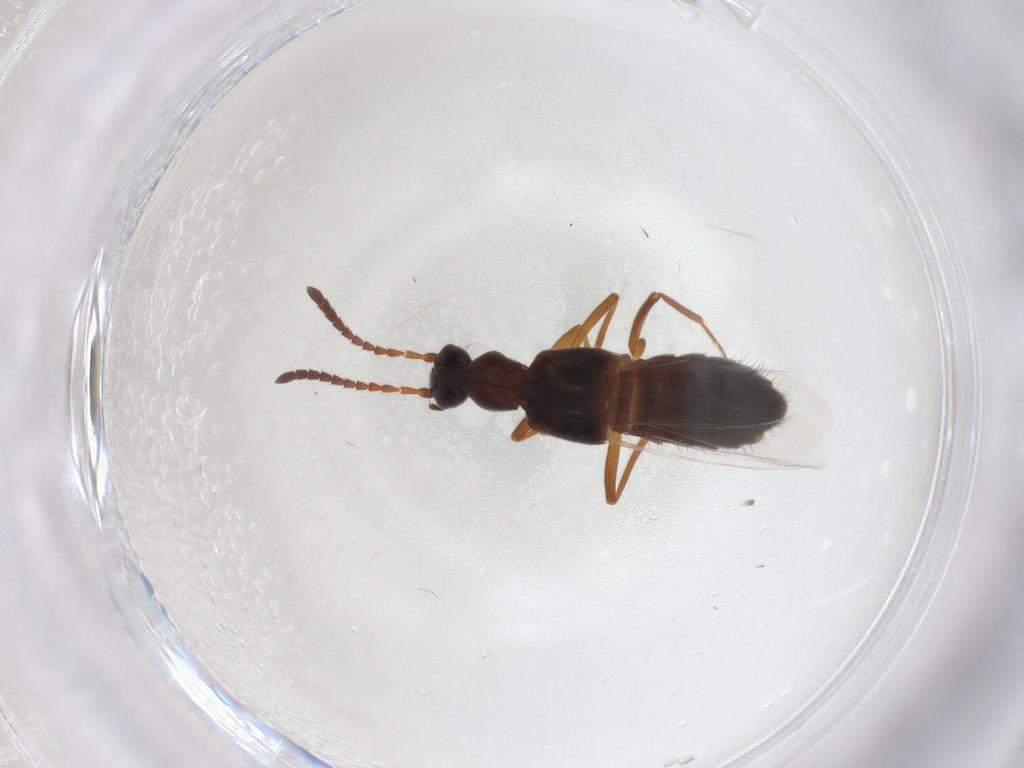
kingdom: Animalia
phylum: Arthropoda
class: Insecta
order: Coleoptera
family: Staphylinidae
